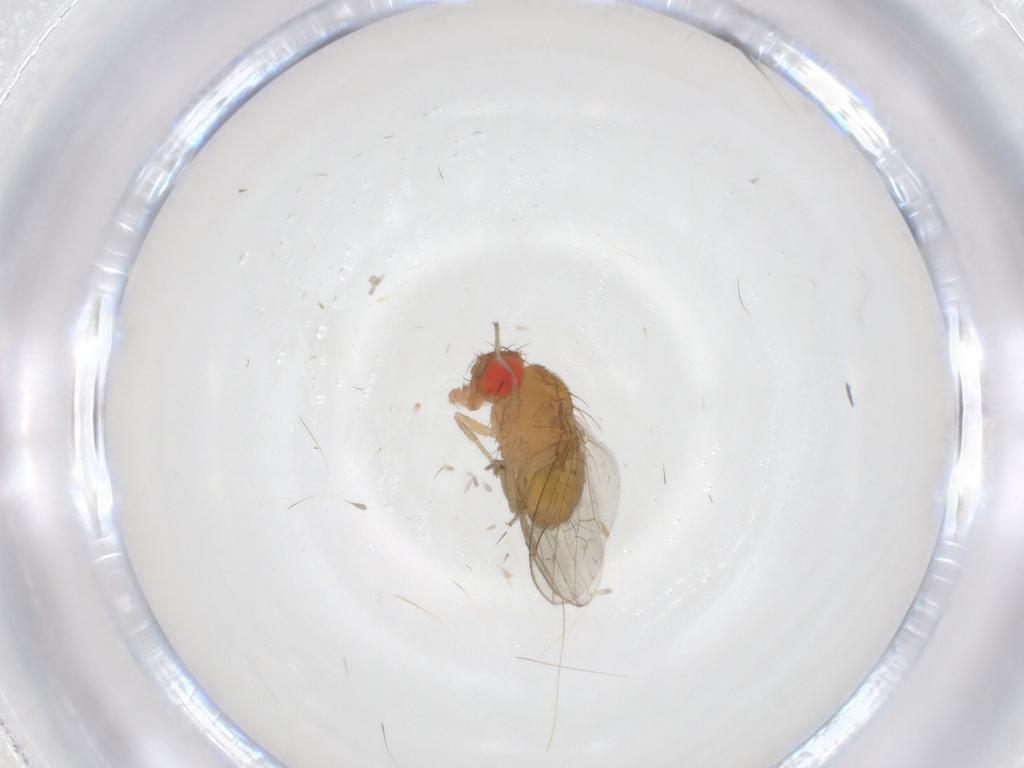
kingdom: Animalia
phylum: Arthropoda
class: Insecta
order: Diptera
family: Drosophilidae
